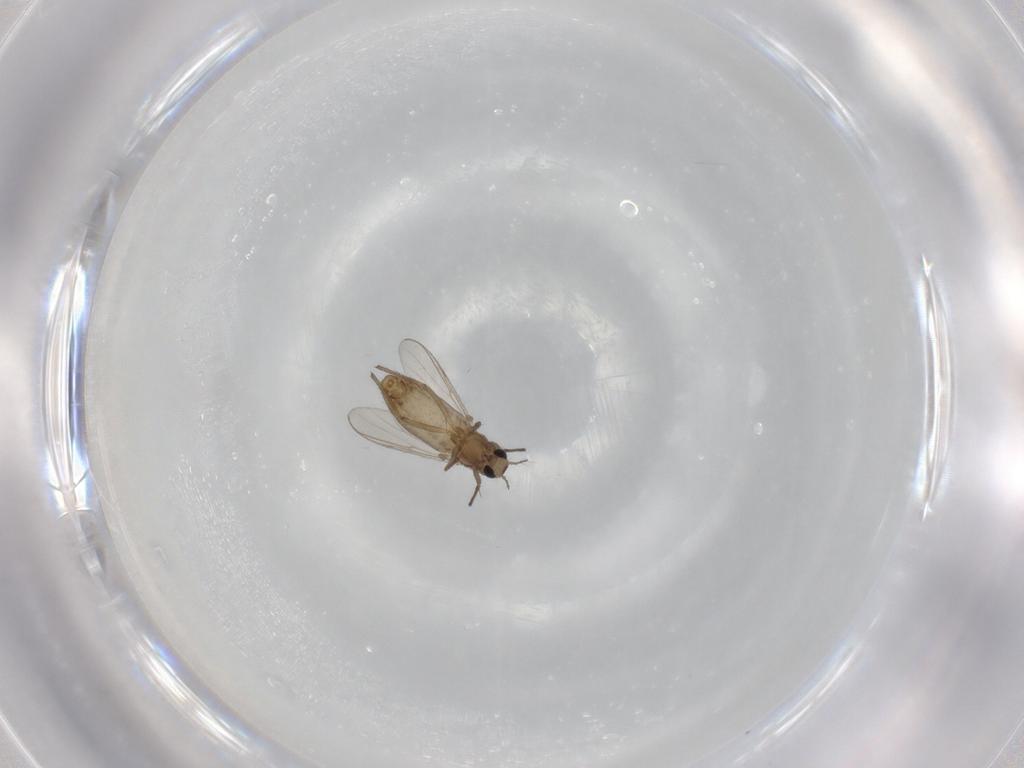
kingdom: Animalia
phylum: Arthropoda
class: Insecta
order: Diptera
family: Chironomidae
